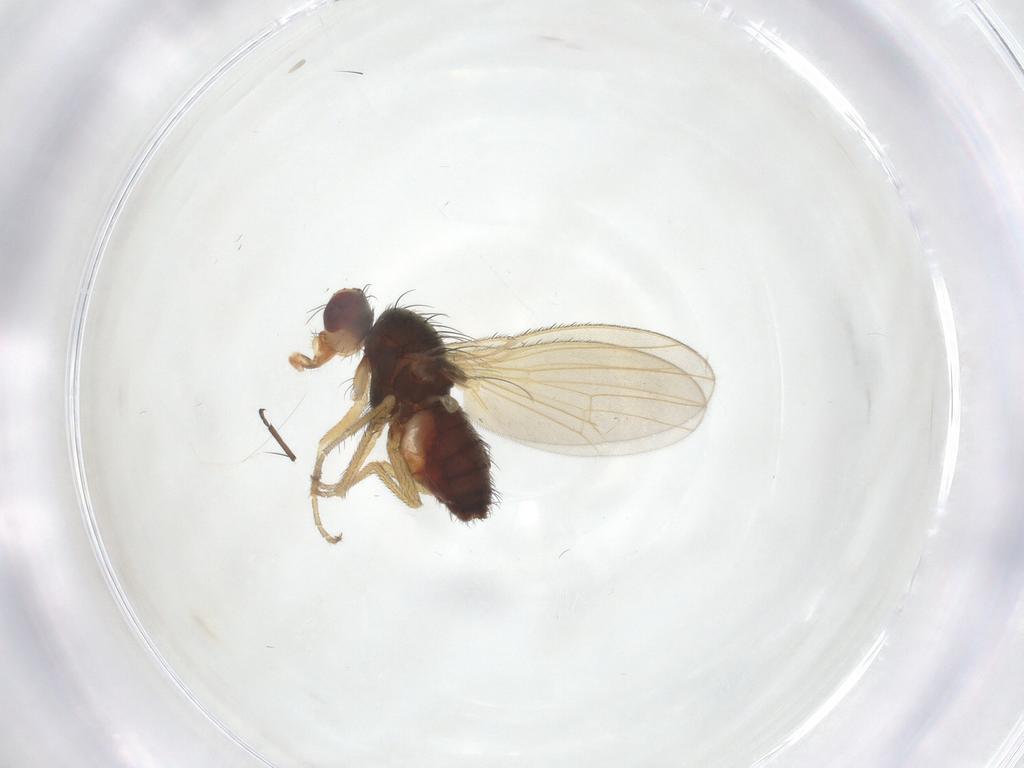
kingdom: Animalia
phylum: Arthropoda
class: Insecta
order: Diptera
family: Heleomyzidae
